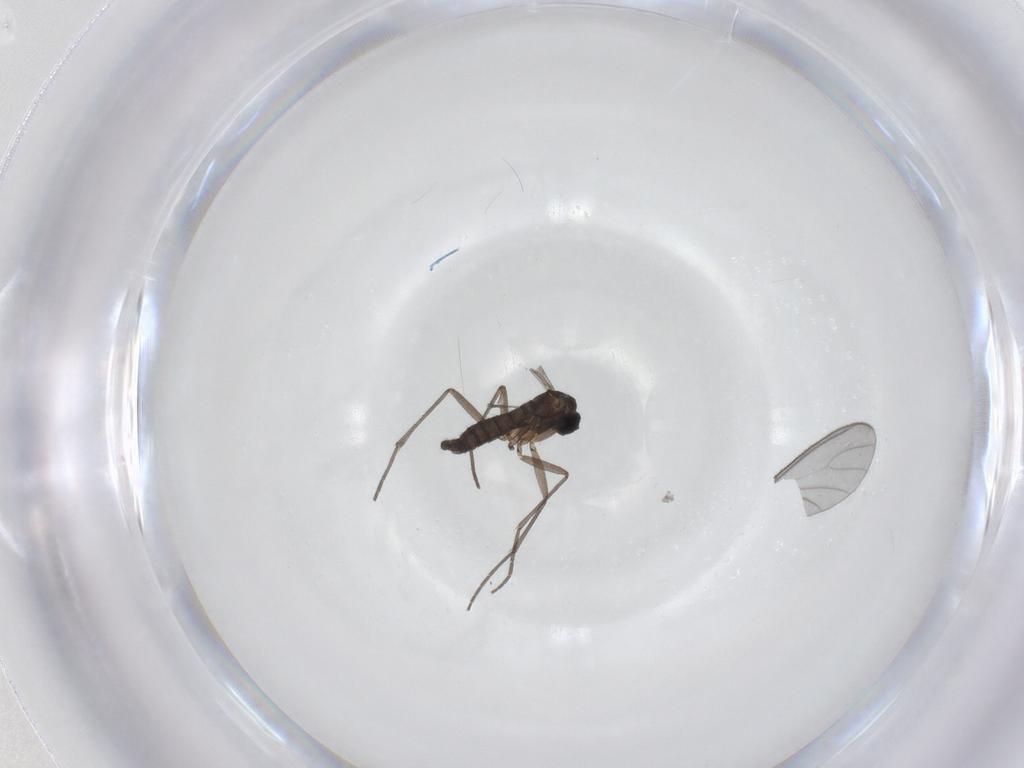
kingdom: Animalia
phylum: Arthropoda
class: Insecta
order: Diptera
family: Sciaridae
